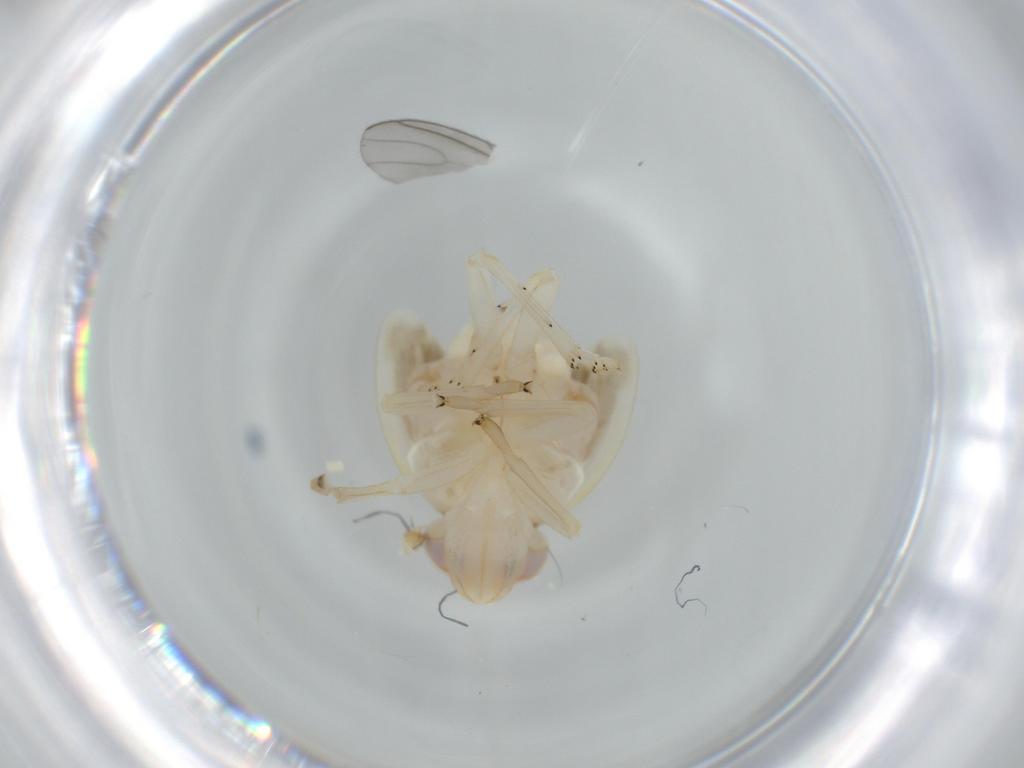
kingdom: Animalia
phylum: Arthropoda
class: Insecta
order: Hemiptera
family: Nogodinidae
